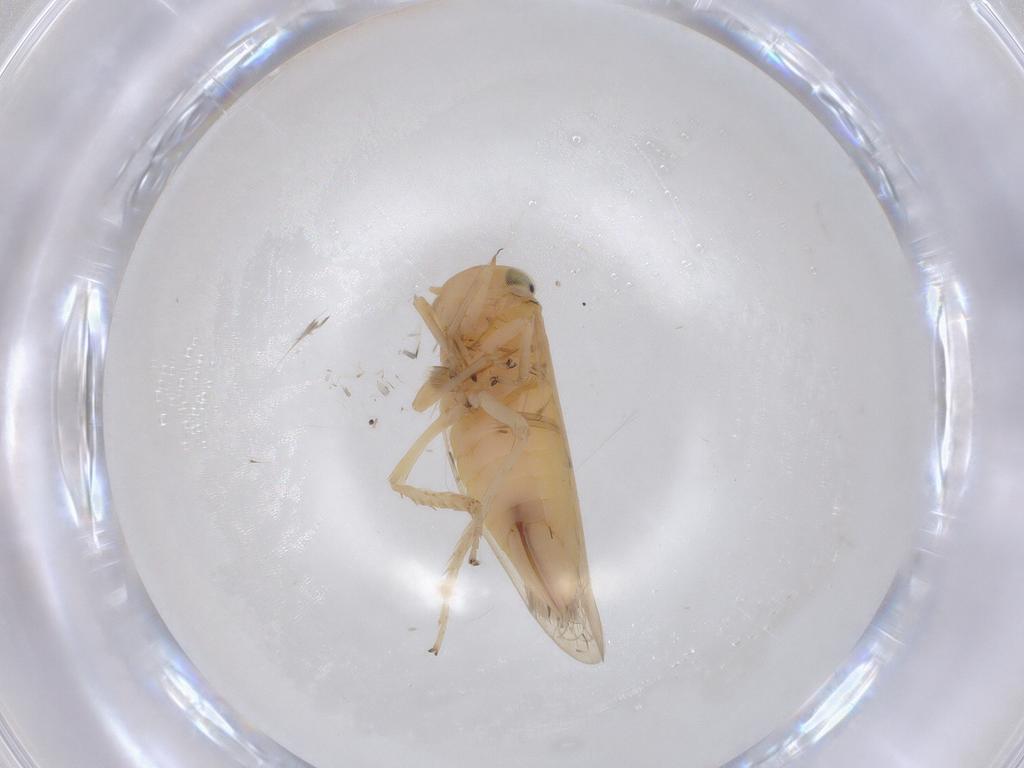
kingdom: Animalia
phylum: Arthropoda
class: Insecta
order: Hemiptera
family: Cicadellidae
